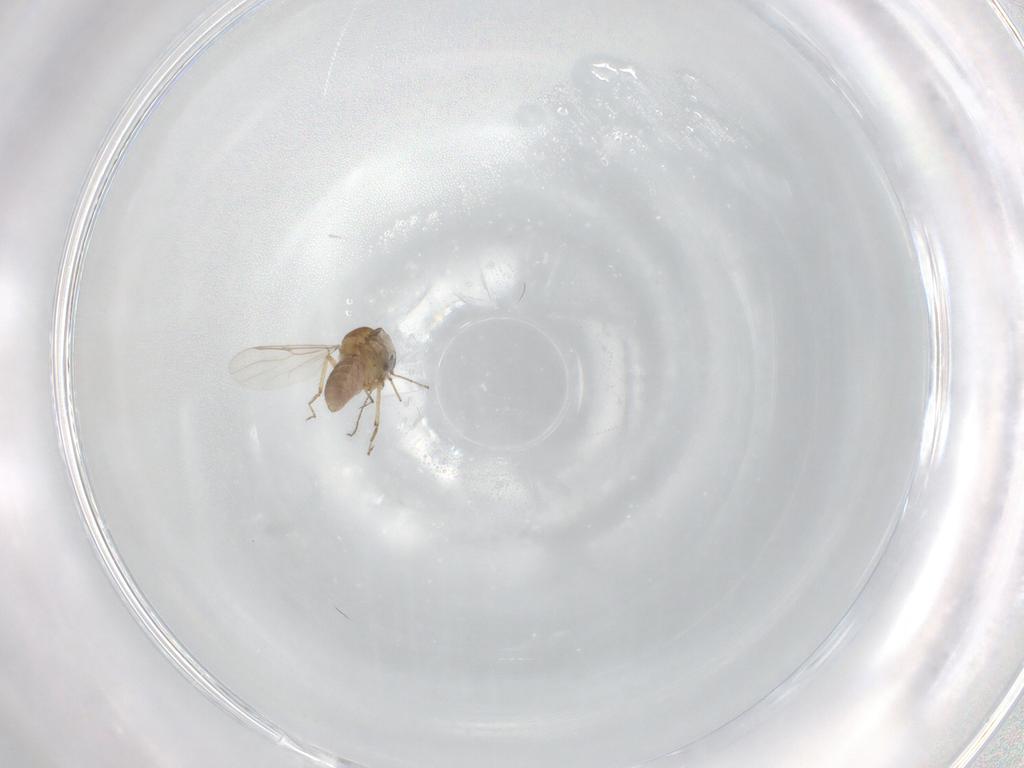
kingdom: Animalia
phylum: Arthropoda
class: Insecta
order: Diptera
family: Ceratopogonidae
